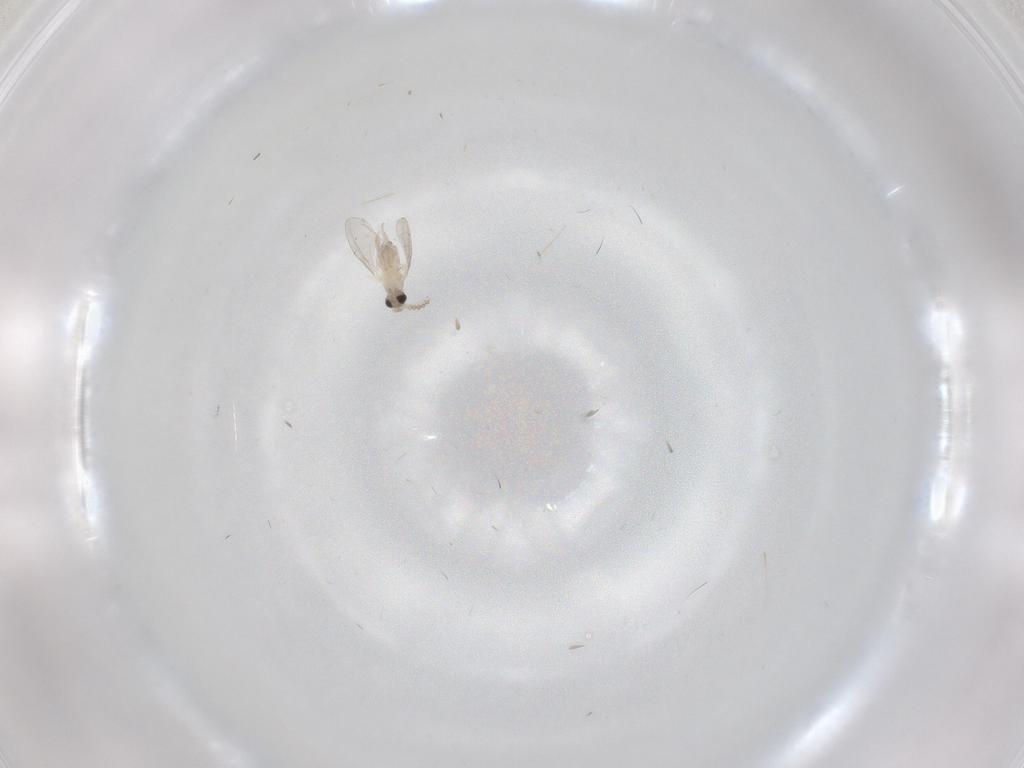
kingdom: Animalia
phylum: Arthropoda
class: Insecta
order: Diptera
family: Cecidomyiidae
